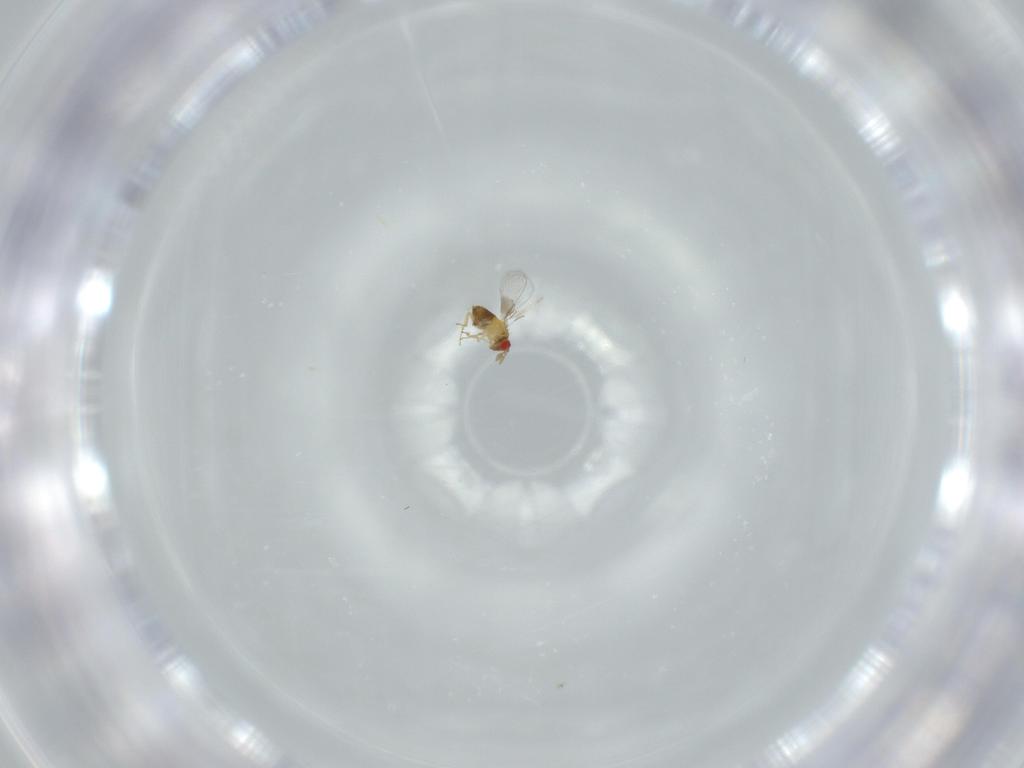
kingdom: Animalia
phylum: Arthropoda
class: Insecta
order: Hymenoptera
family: Trichogrammatidae
